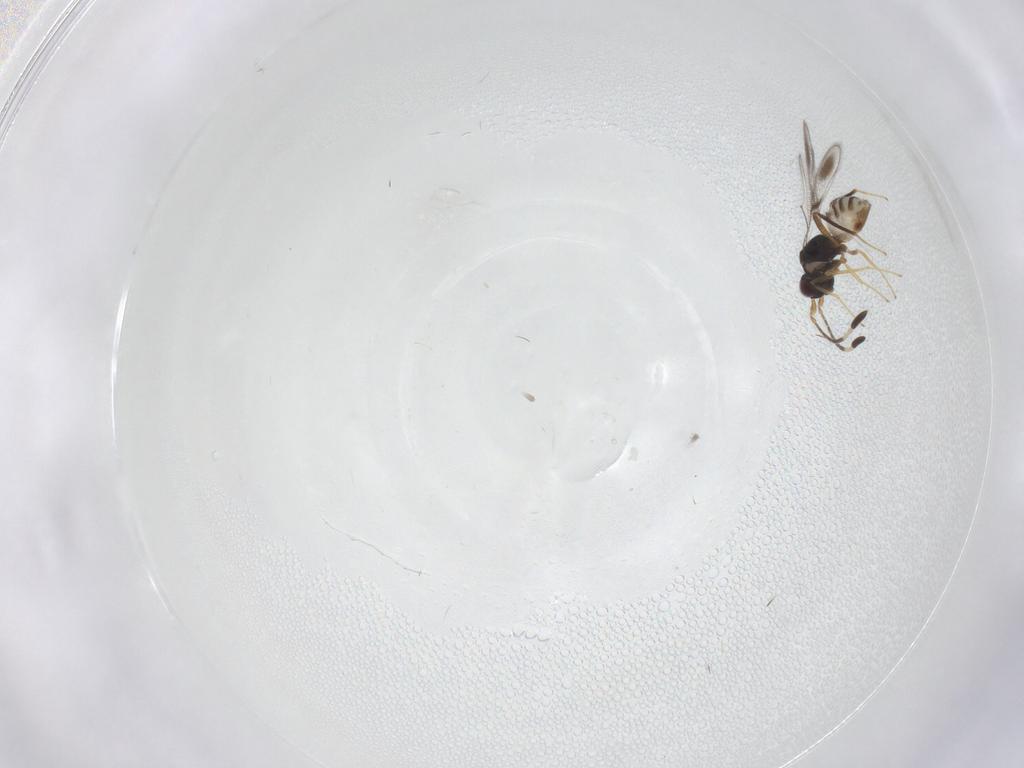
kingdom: Animalia
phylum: Arthropoda
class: Insecta
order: Hymenoptera
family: Mymaridae
